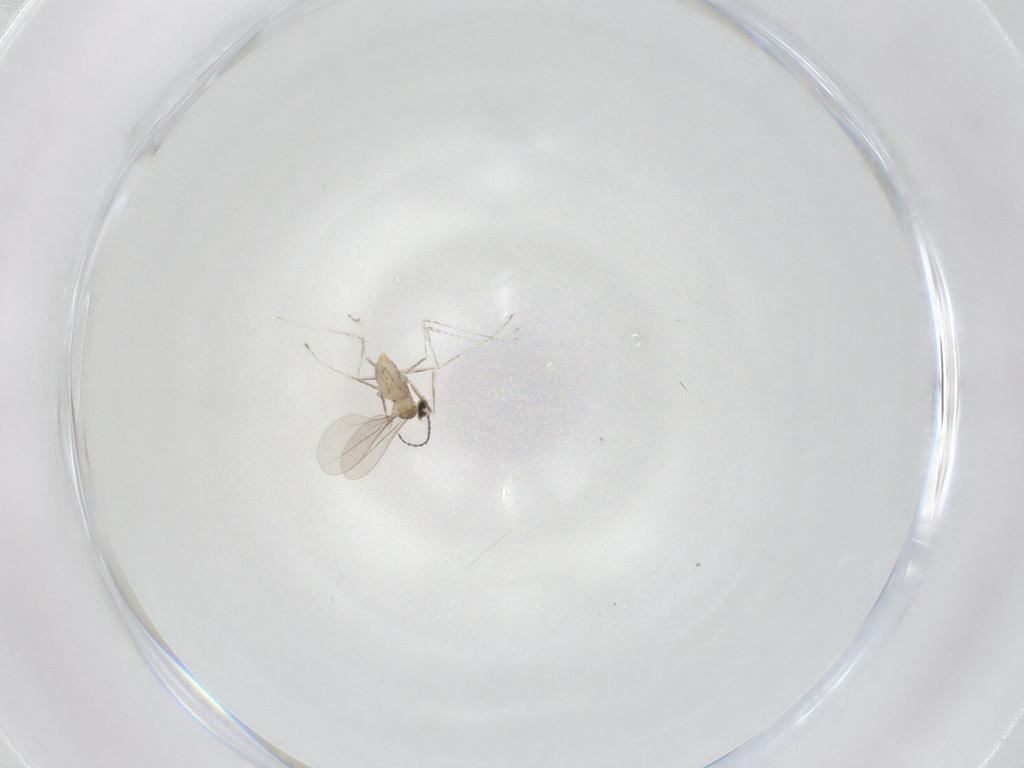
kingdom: Animalia
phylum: Arthropoda
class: Insecta
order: Diptera
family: Cecidomyiidae
